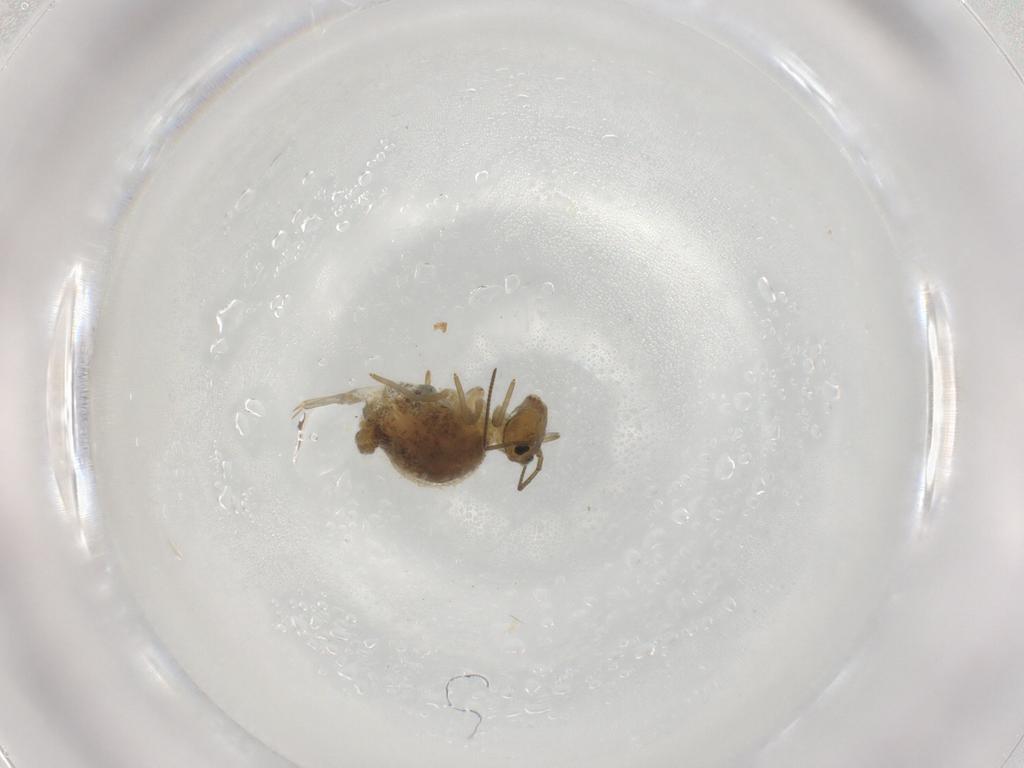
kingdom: Animalia
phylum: Arthropoda
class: Collembola
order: Symphypleona
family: Sminthuridae
